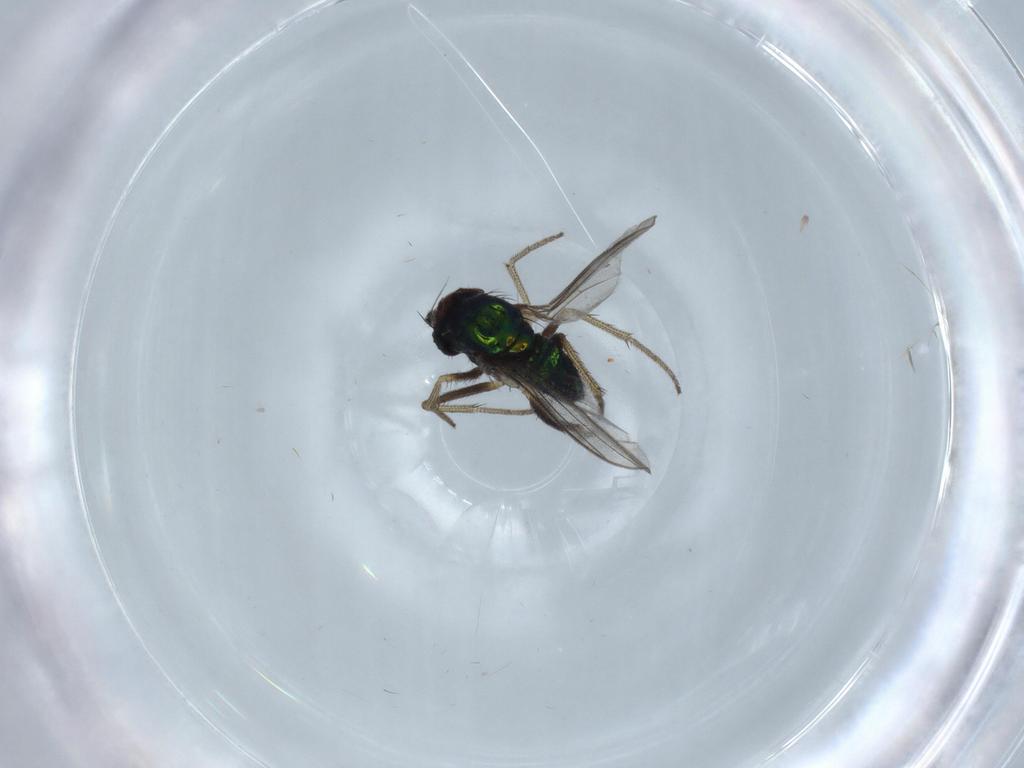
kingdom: Animalia
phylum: Arthropoda
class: Insecta
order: Diptera
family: Dolichopodidae
